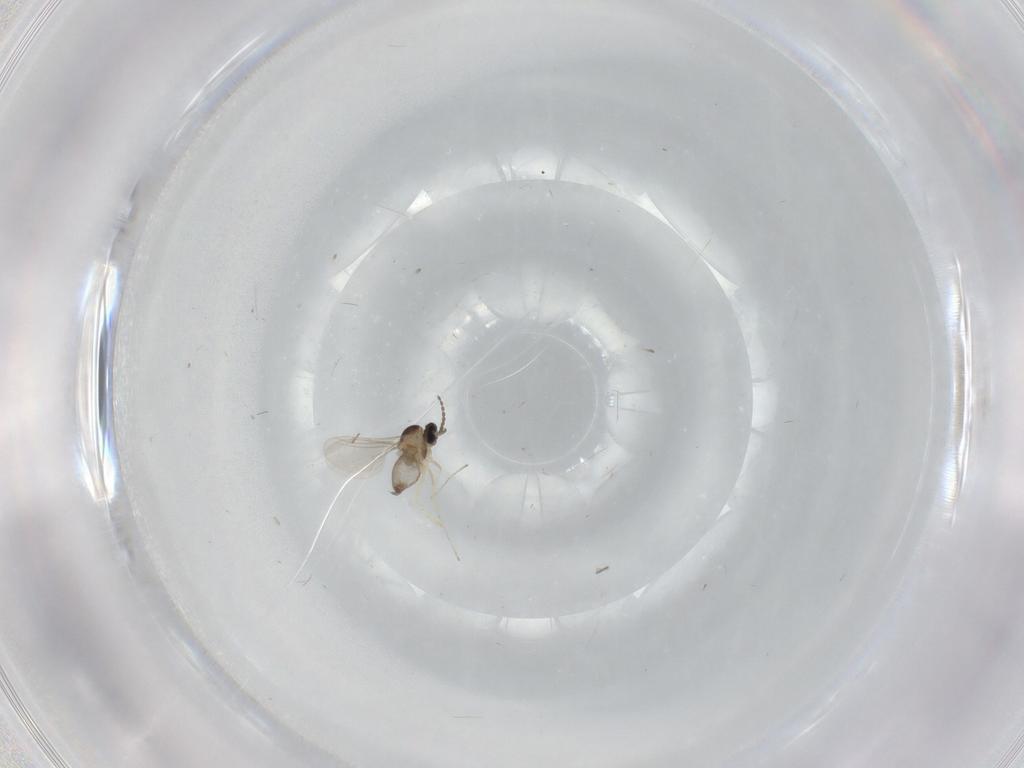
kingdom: Animalia
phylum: Arthropoda
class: Insecta
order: Diptera
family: Cecidomyiidae
